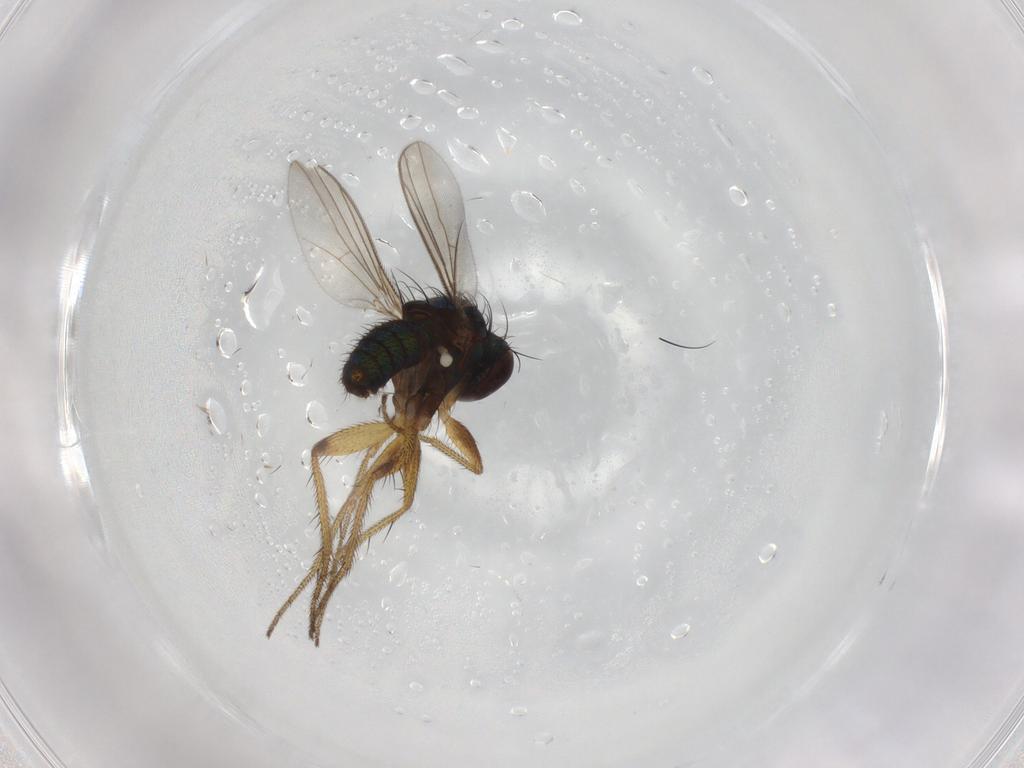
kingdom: Animalia
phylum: Arthropoda
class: Insecta
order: Diptera
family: Dolichopodidae
